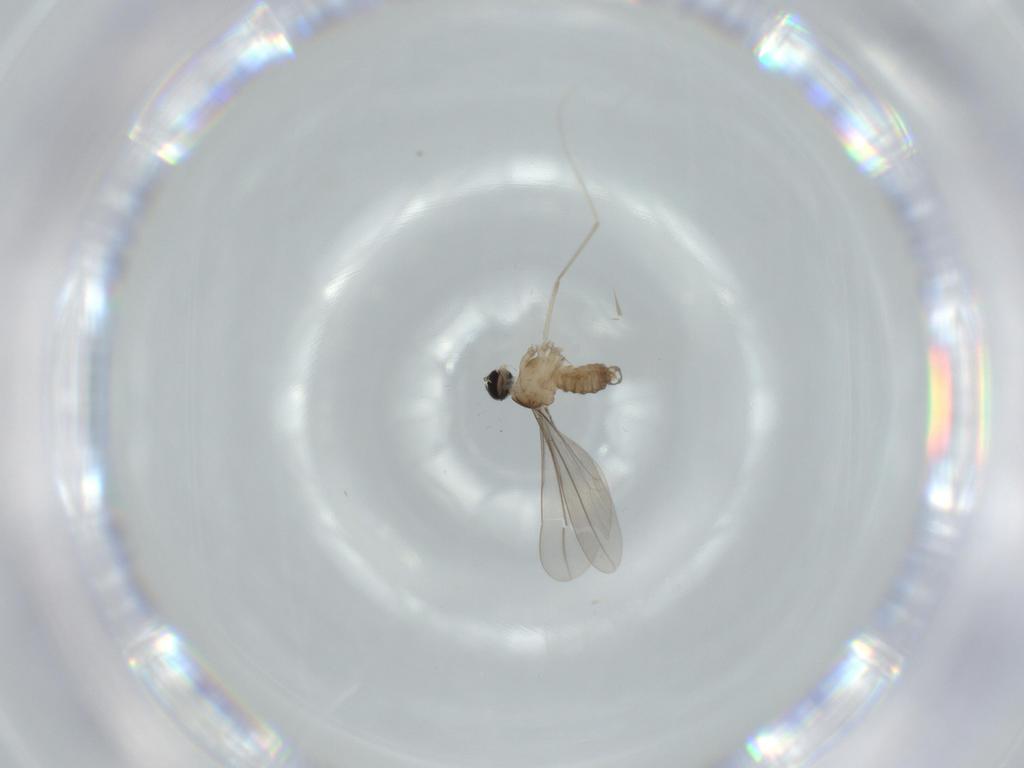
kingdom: Animalia
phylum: Arthropoda
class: Insecta
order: Diptera
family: Cecidomyiidae
